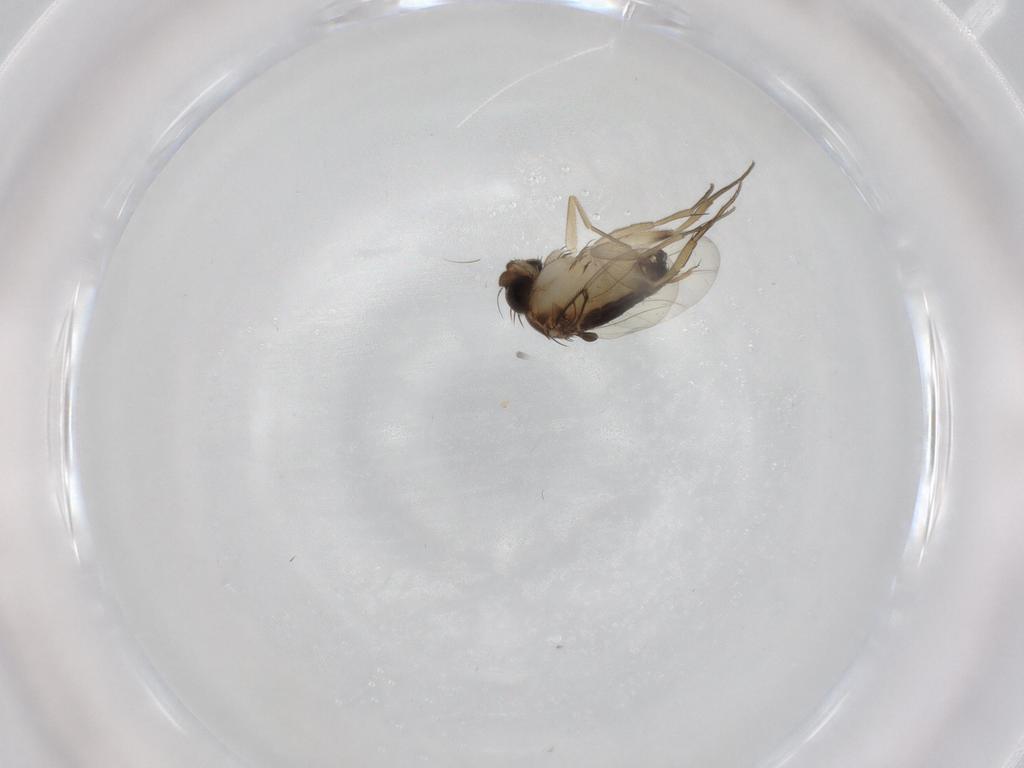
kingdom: Animalia
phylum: Arthropoda
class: Insecta
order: Diptera
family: Phoridae
